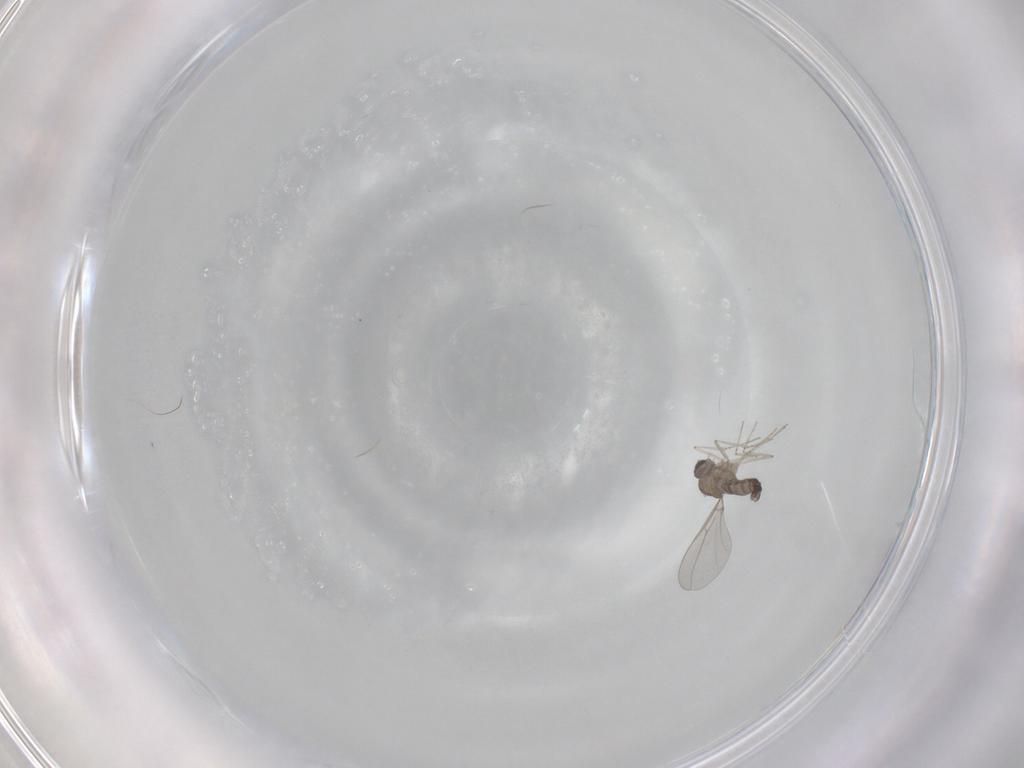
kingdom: Animalia
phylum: Arthropoda
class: Insecta
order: Diptera
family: Cecidomyiidae
